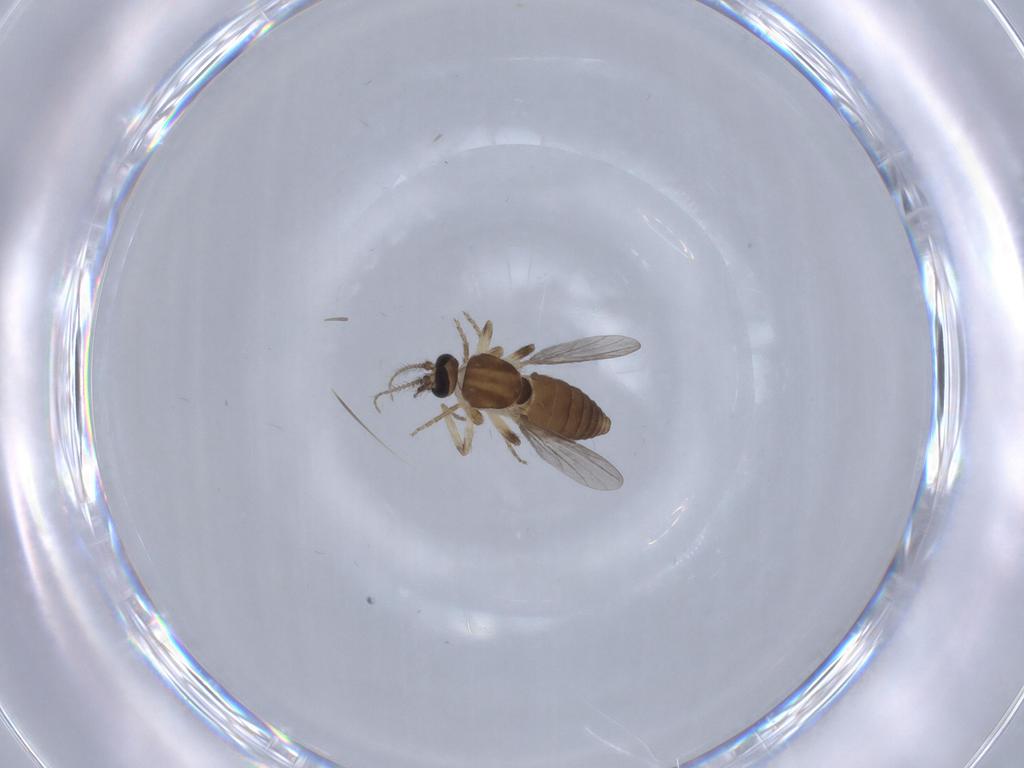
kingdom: Animalia
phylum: Arthropoda
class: Insecta
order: Diptera
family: Ceratopogonidae
